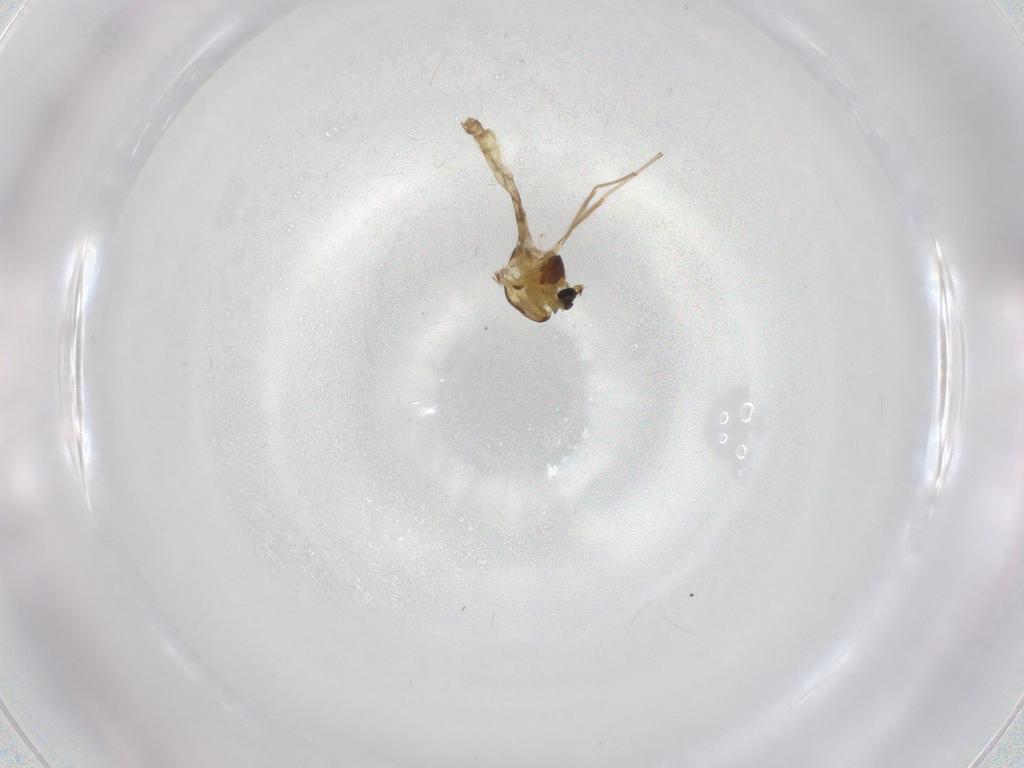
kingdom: Animalia
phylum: Arthropoda
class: Insecta
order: Diptera
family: Chironomidae
